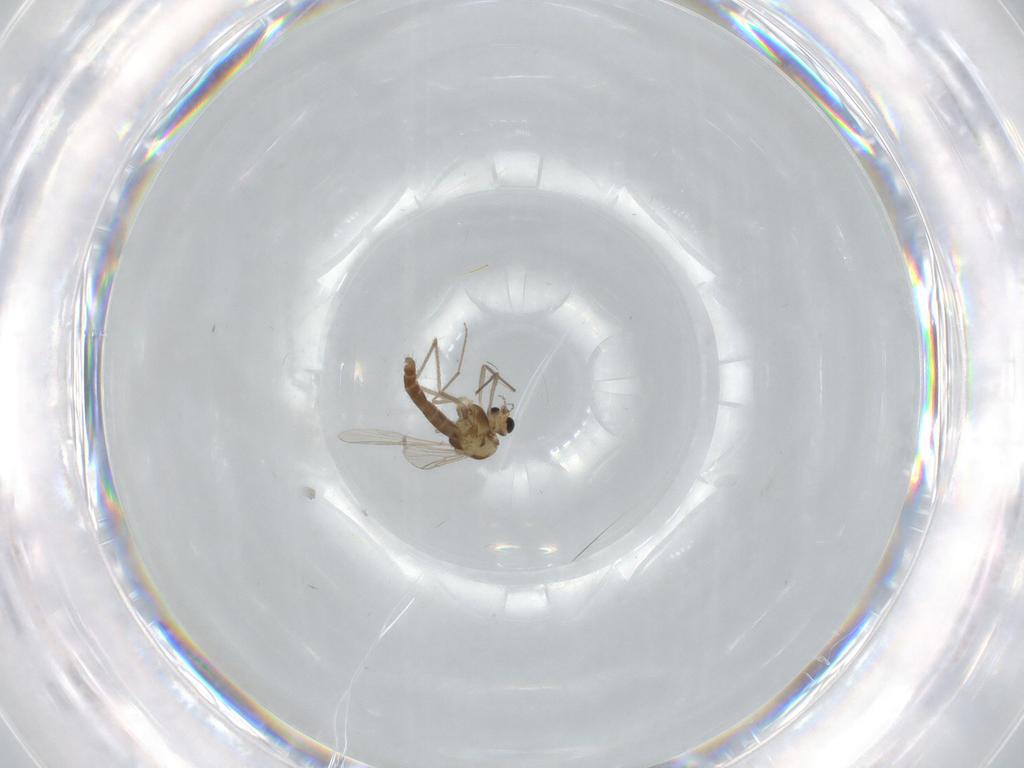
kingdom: Animalia
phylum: Arthropoda
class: Insecta
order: Diptera
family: Chironomidae
